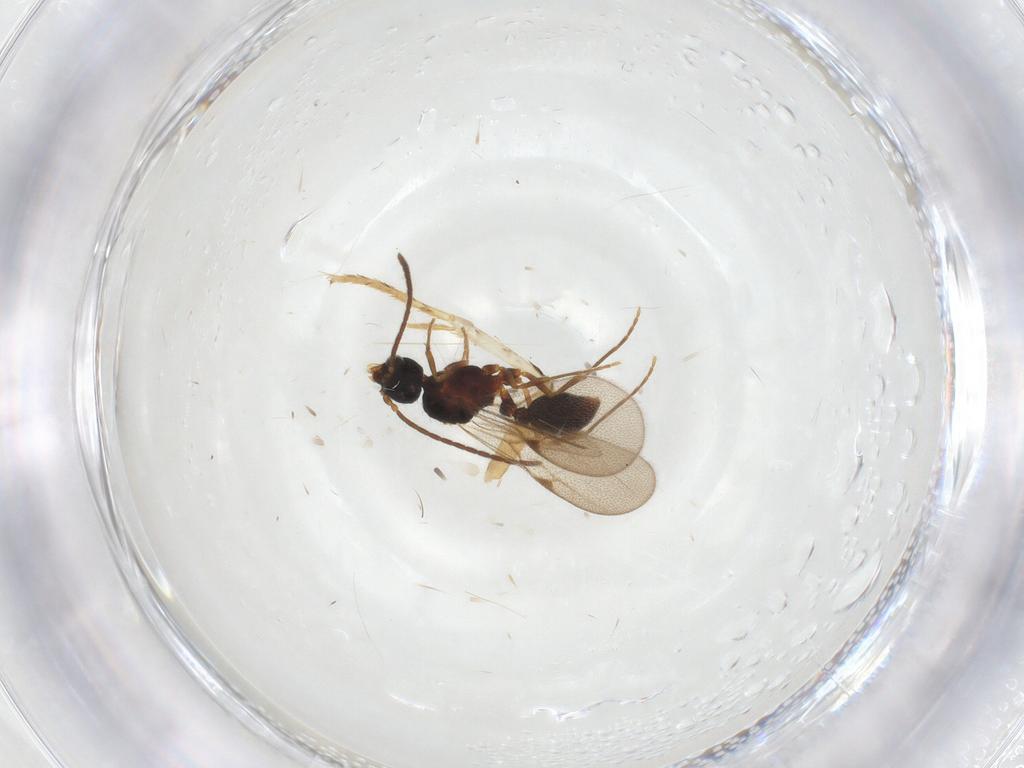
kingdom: Animalia
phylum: Arthropoda
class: Insecta
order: Hymenoptera
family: Formicidae
